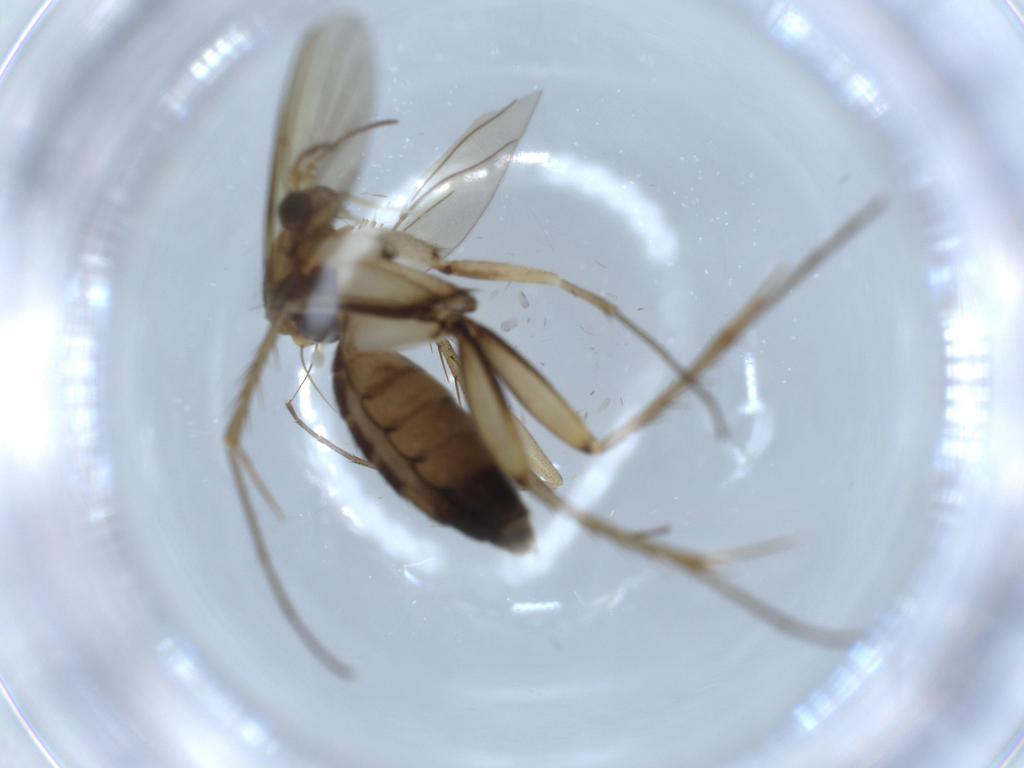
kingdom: Animalia
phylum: Arthropoda
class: Insecta
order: Diptera
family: Sciaridae
